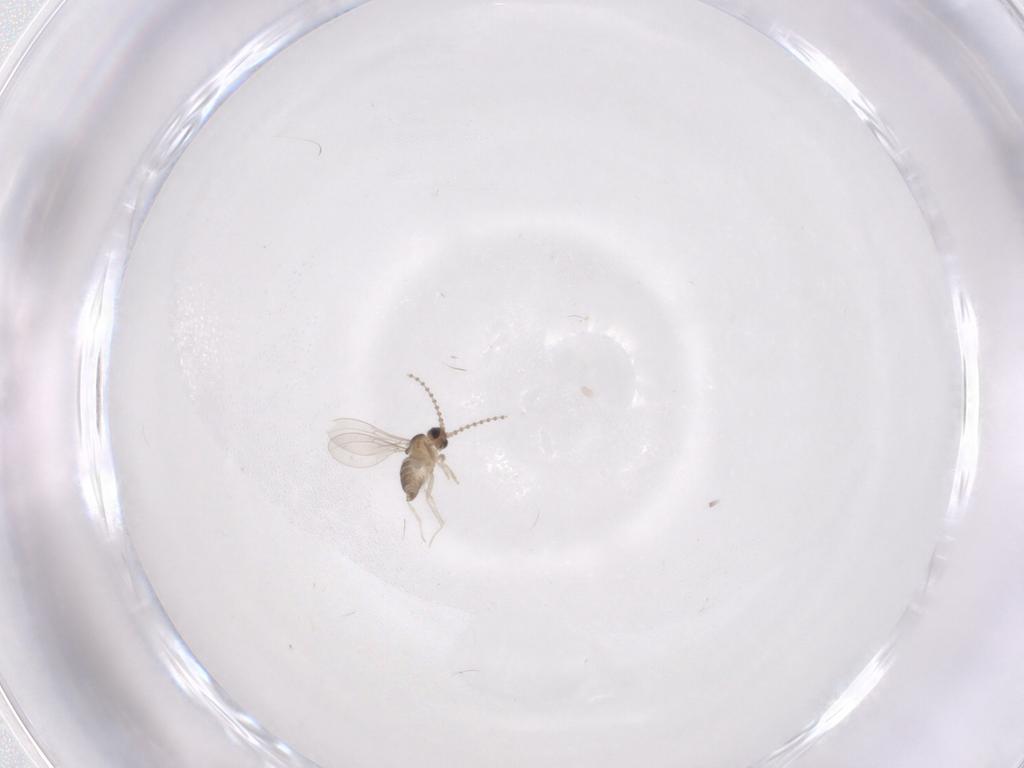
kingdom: Animalia
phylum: Arthropoda
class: Insecta
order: Diptera
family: Cecidomyiidae
